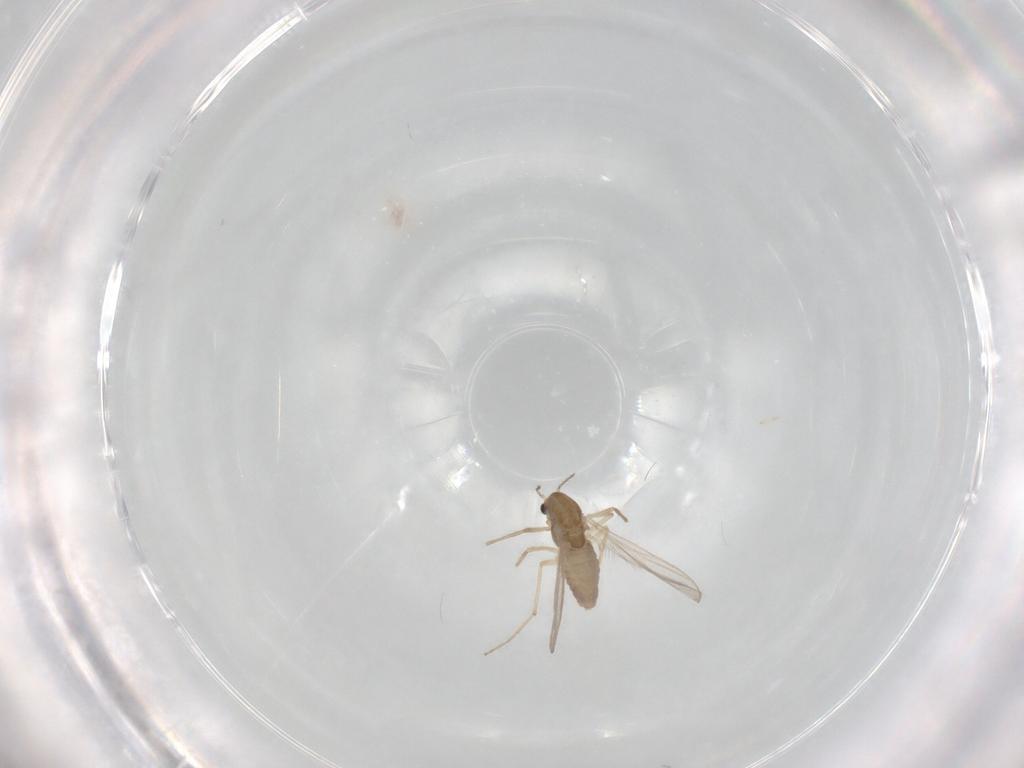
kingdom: Animalia
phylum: Arthropoda
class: Insecta
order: Diptera
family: Chironomidae
